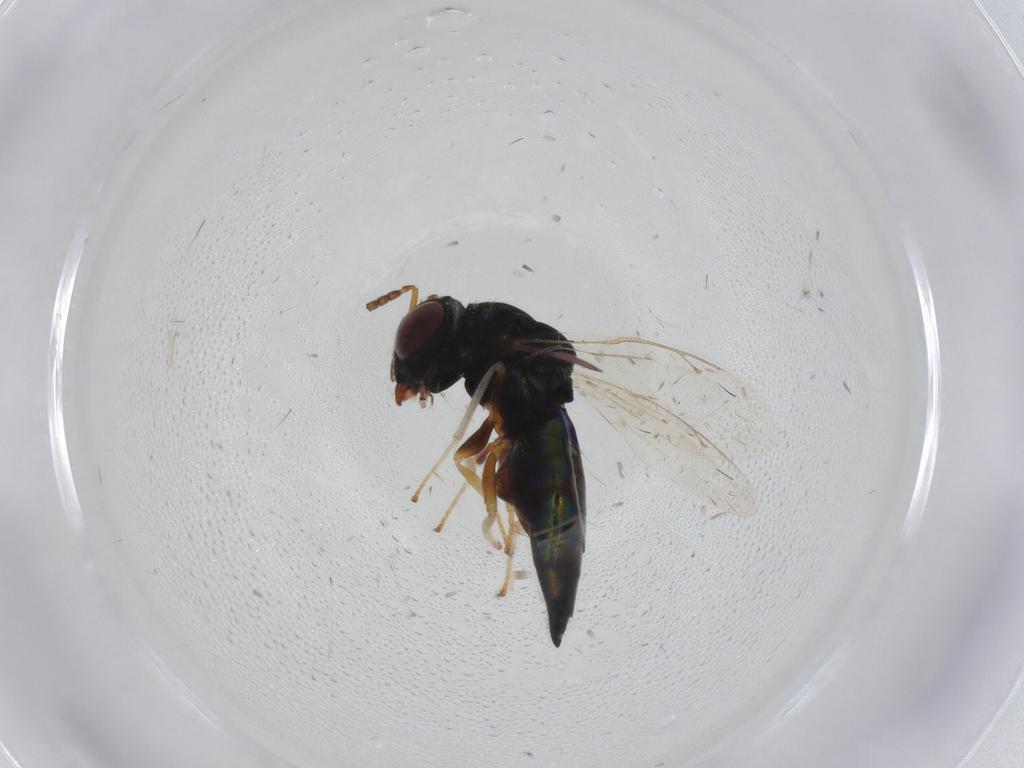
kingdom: Animalia
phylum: Arthropoda
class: Insecta
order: Hymenoptera
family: Pteromalidae
